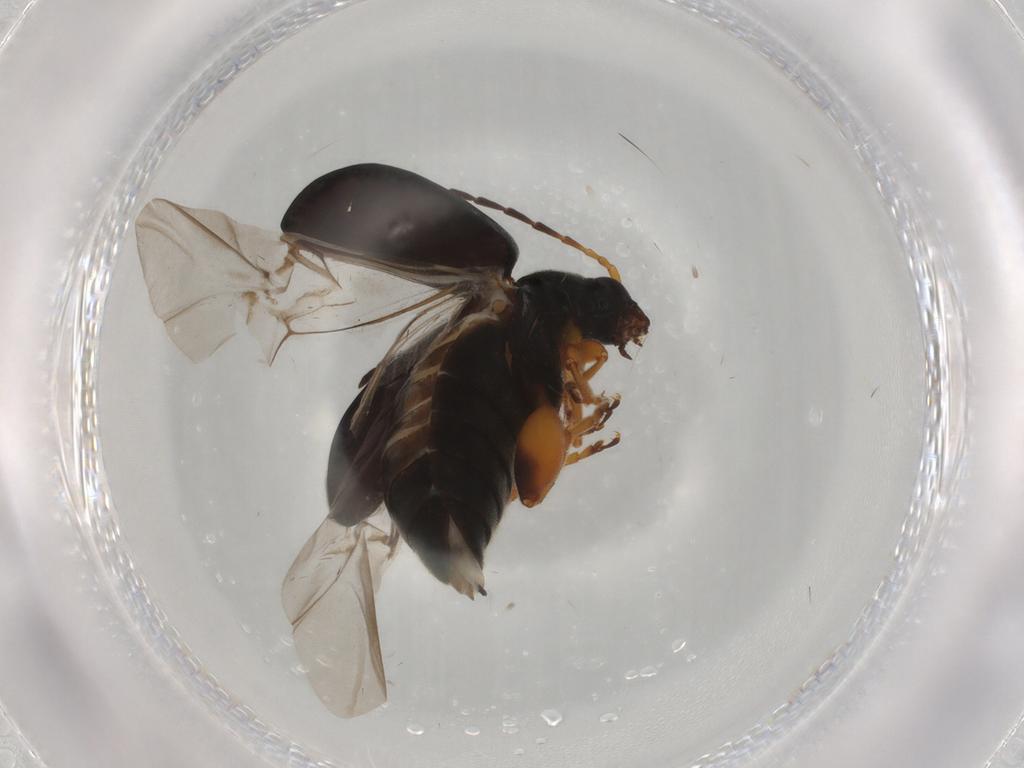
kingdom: Animalia
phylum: Arthropoda
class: Insecta
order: Coleoptera
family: Chrysomelidae
